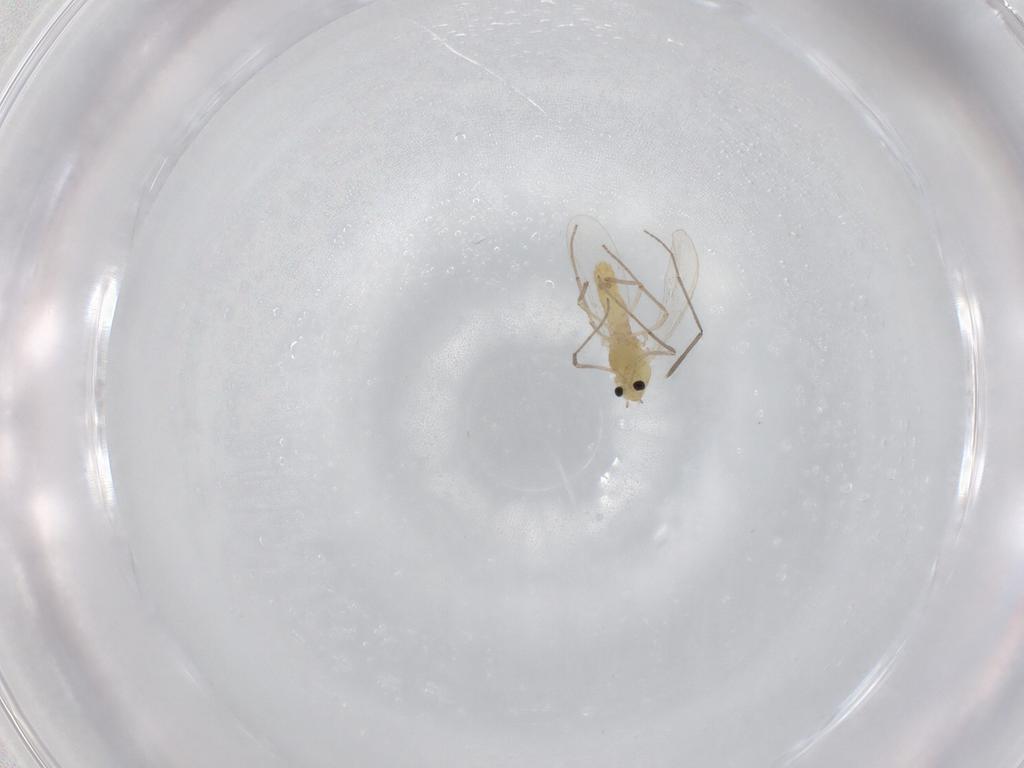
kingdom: Animalia
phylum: Arthropoda
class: Insecta
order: Diptera
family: Chironomidae
